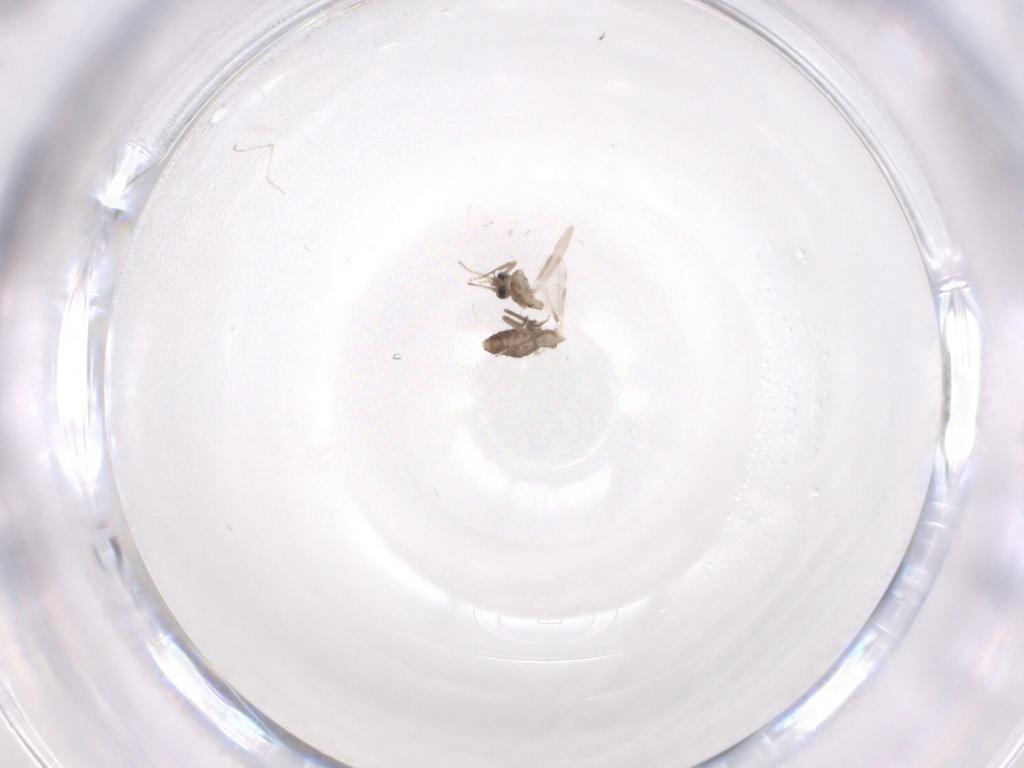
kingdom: Animalia
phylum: Arthropoda
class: Insecta
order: Diptera
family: Ceratopogonidae
